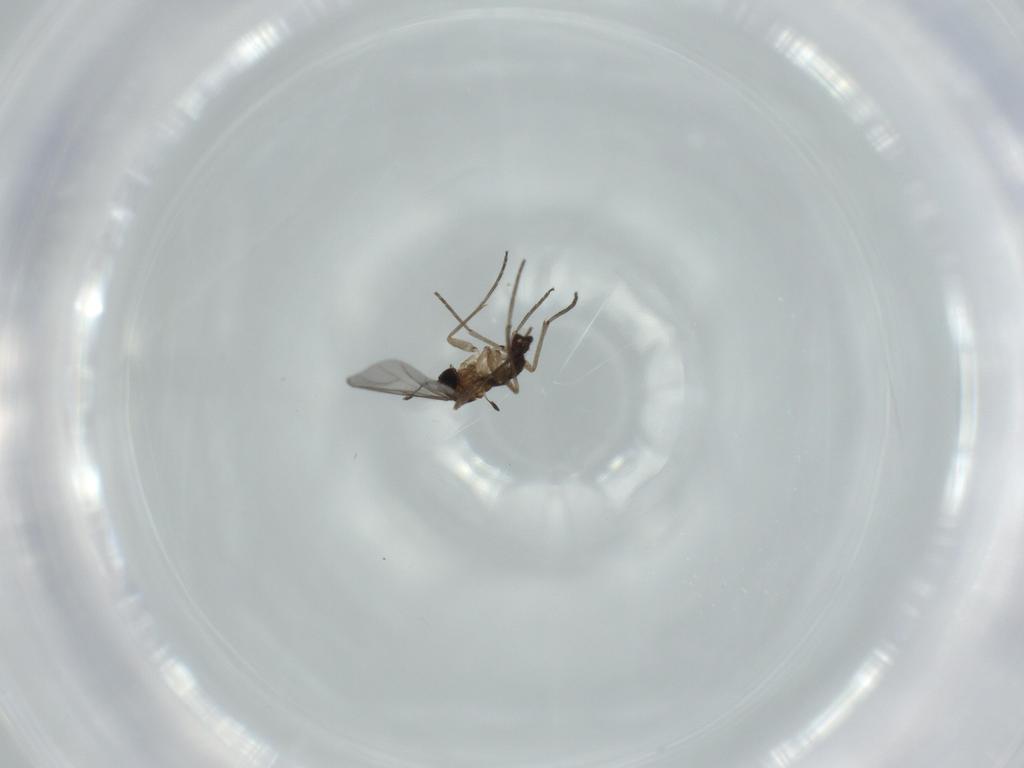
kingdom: Animalia
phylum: Arthropoda
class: Insecta
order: Diptera
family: Sciaridae
